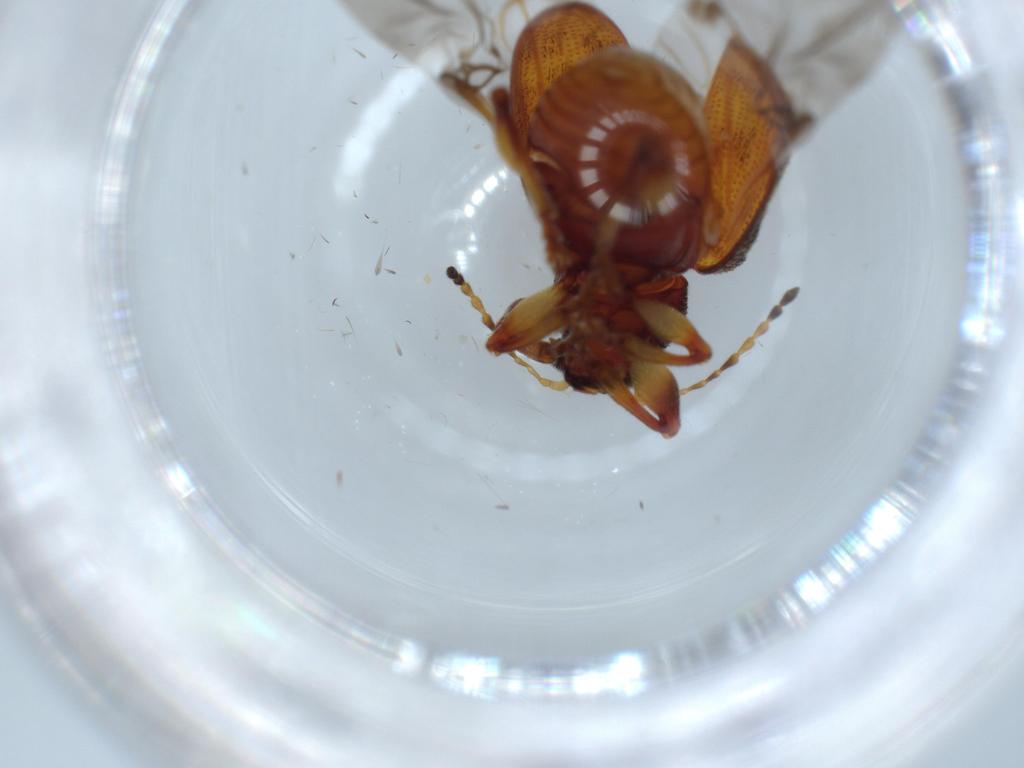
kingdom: Animalia
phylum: Arthropoda
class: Insecta
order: Coleoptera
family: Chrysomelidae
